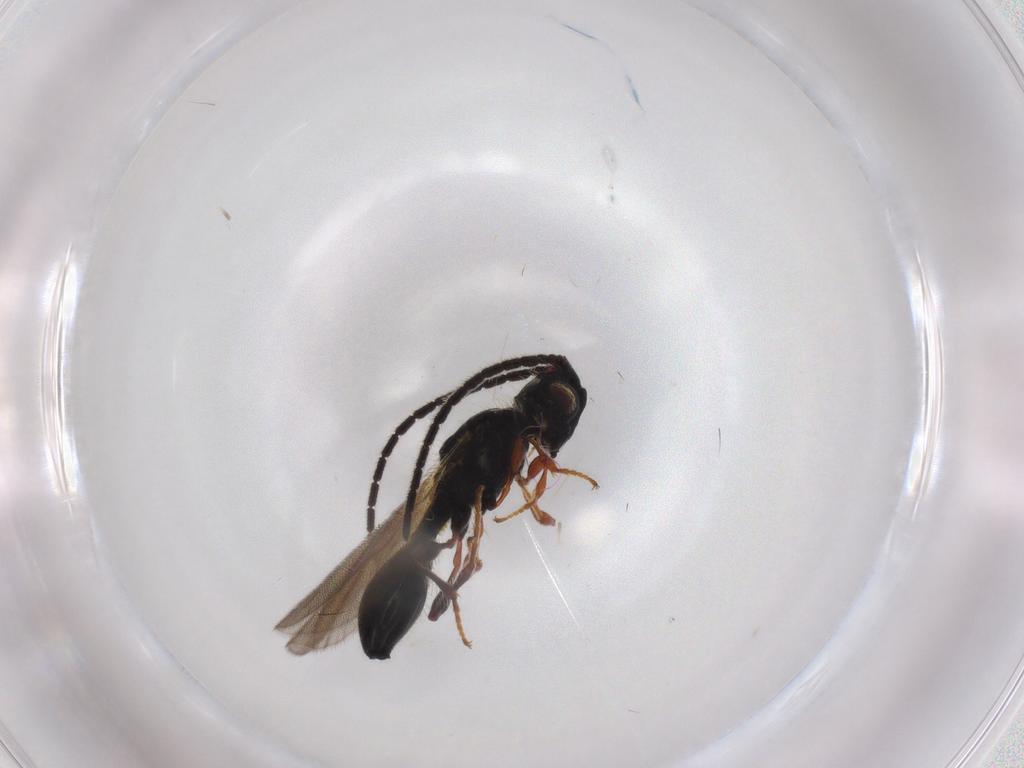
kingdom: Animalia
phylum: Arthropoda
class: Insecta
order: Hymenoptera
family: Diapriidae
